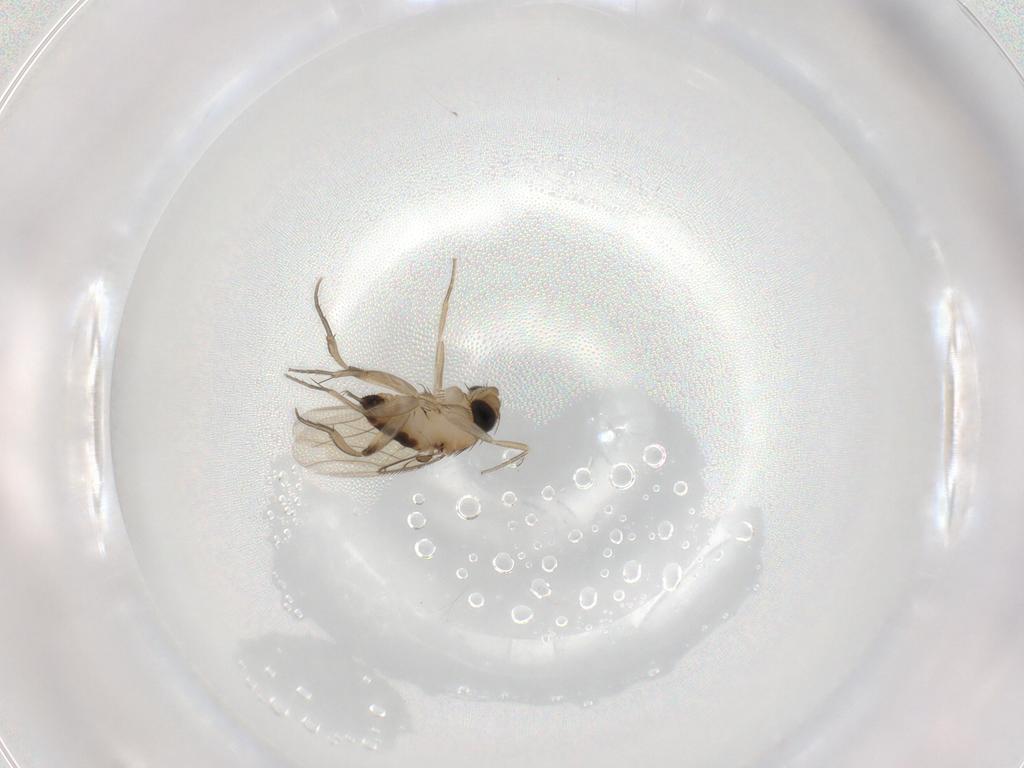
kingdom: Animalia
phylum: Arthropoda
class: Insecta
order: Diptera
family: Phoridae
